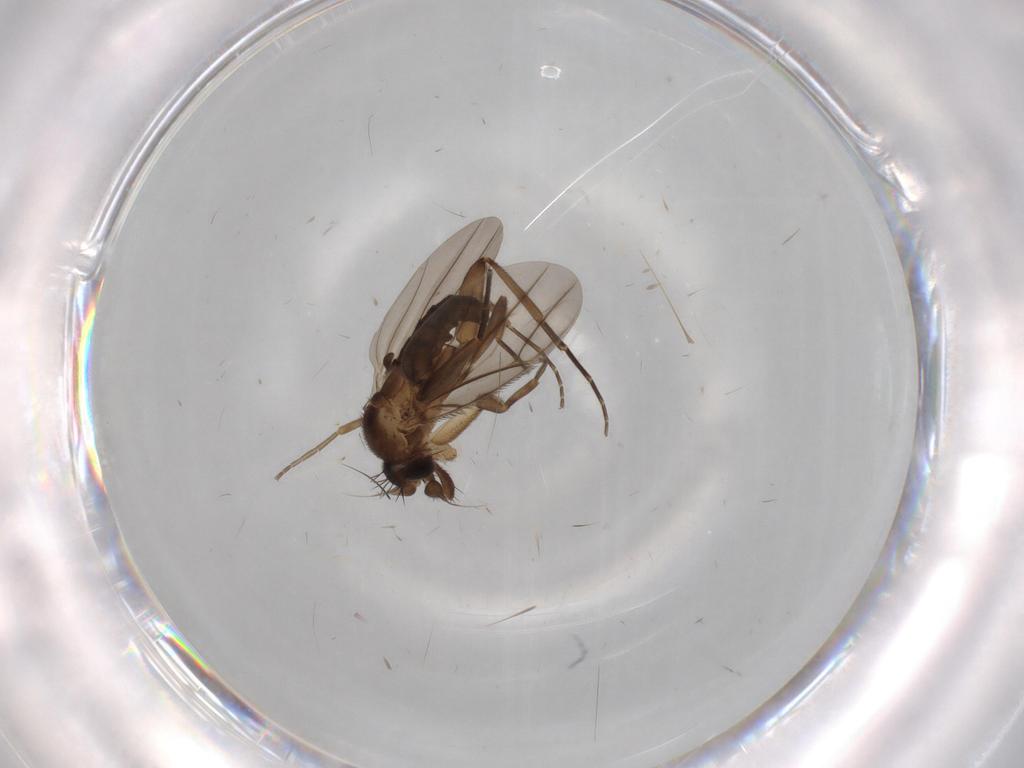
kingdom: Animalia
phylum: Arthropoda
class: Insecta
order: Diptera
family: Phoridae
